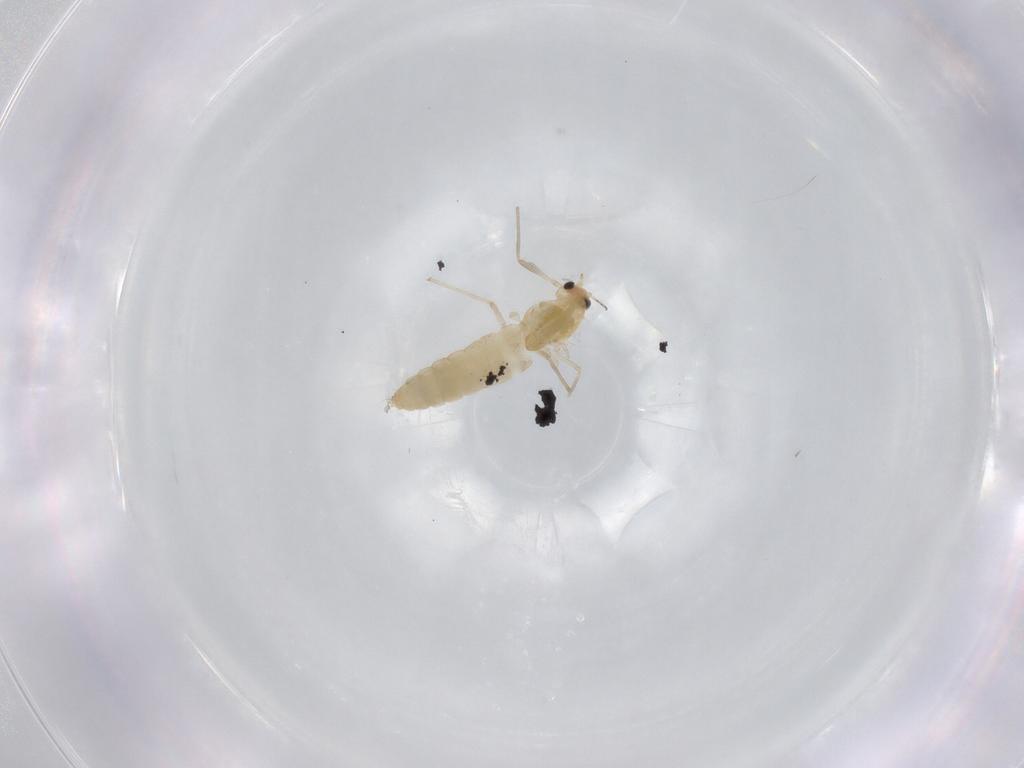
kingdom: Animalia
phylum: Arthropoda
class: Insecta
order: Diptera
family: Chironomidae
